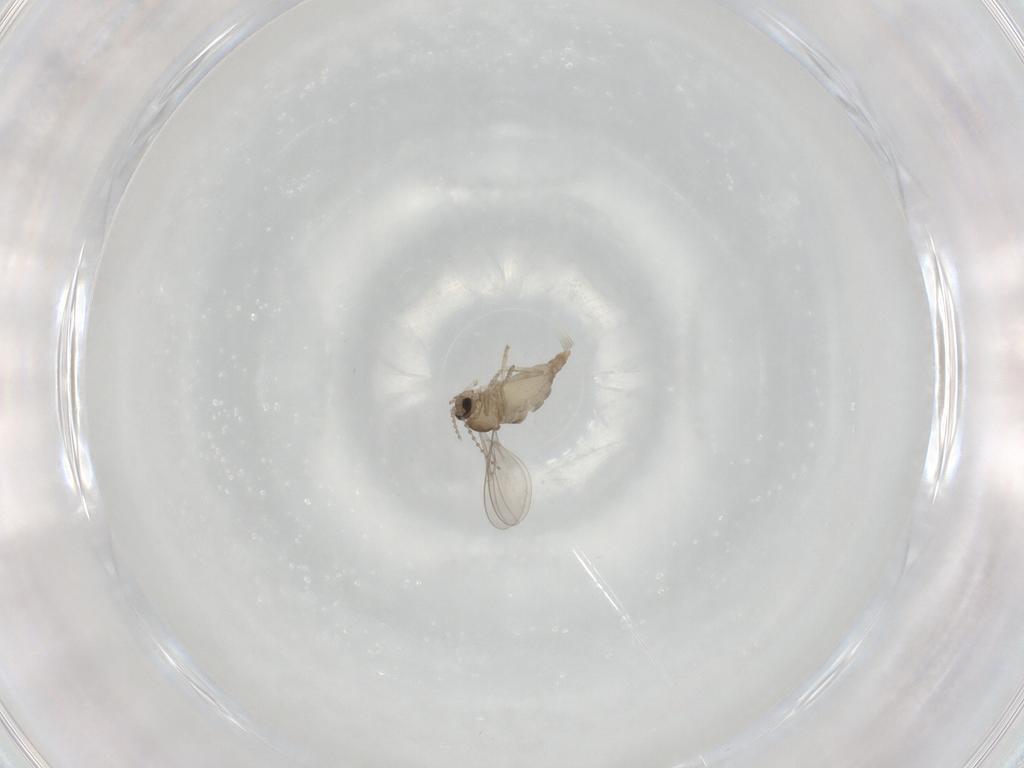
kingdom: Animalia
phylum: Arthropoda
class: Insecta
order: Diptera
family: Cecidomyiidae
